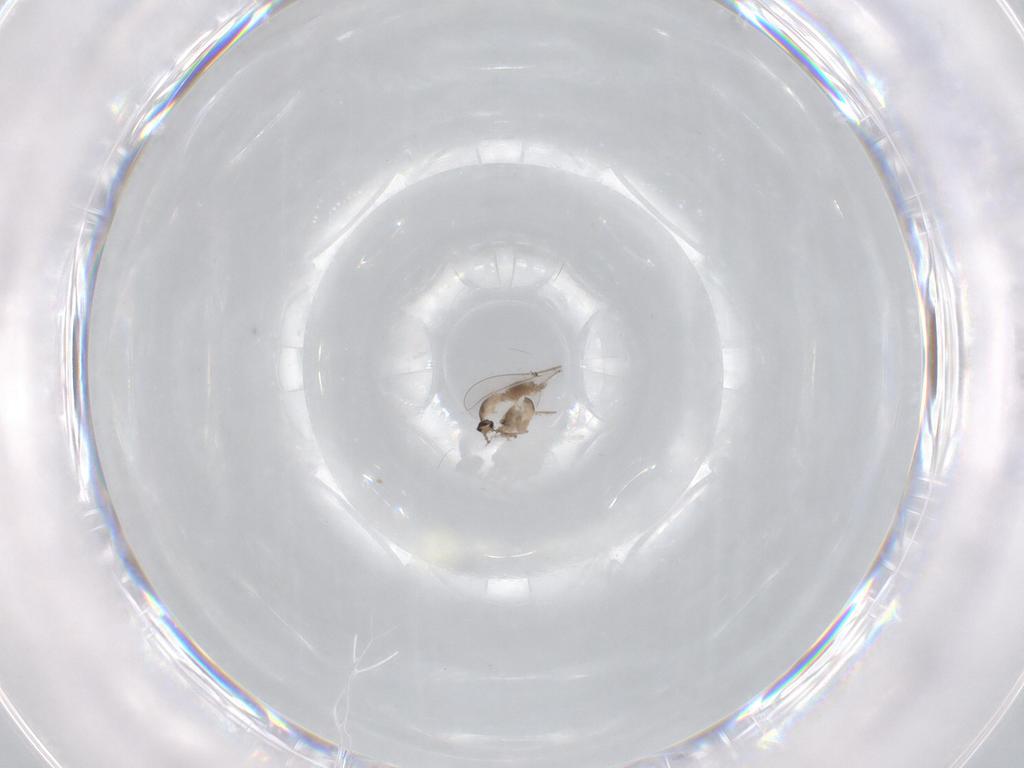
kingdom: Animalia
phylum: Arthropoda
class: Insecta
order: Diptera
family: Cecidomyiidae
